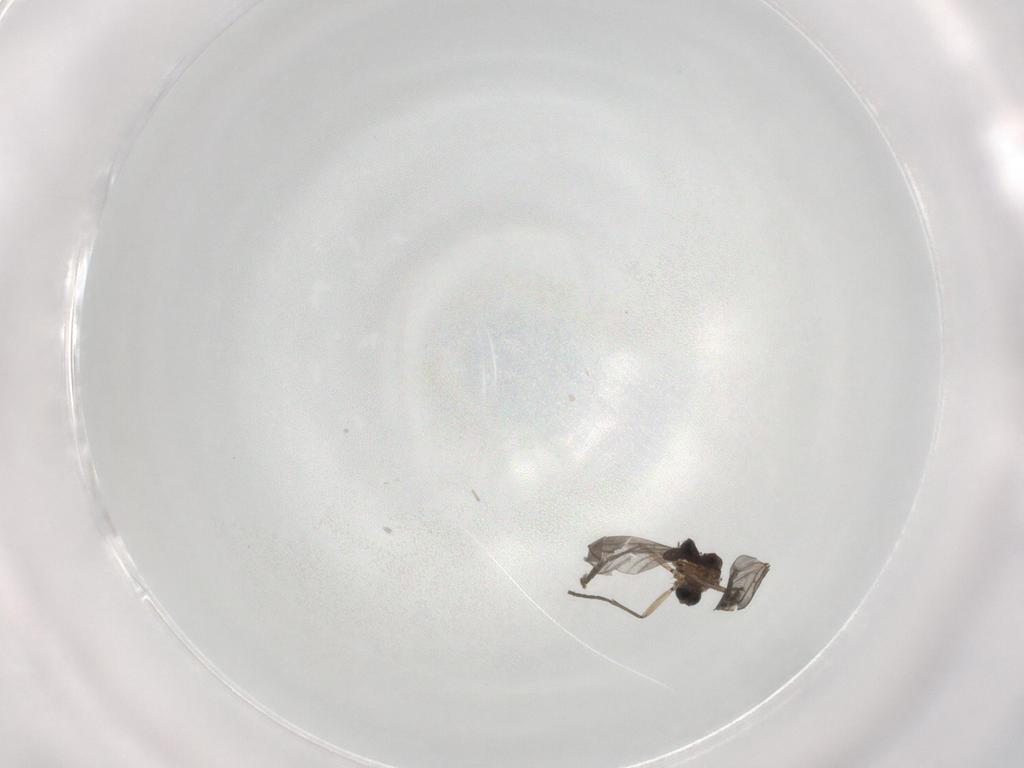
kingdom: Animalia
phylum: Arthropoda
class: Insecta
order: Diptera
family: Sciaridae
